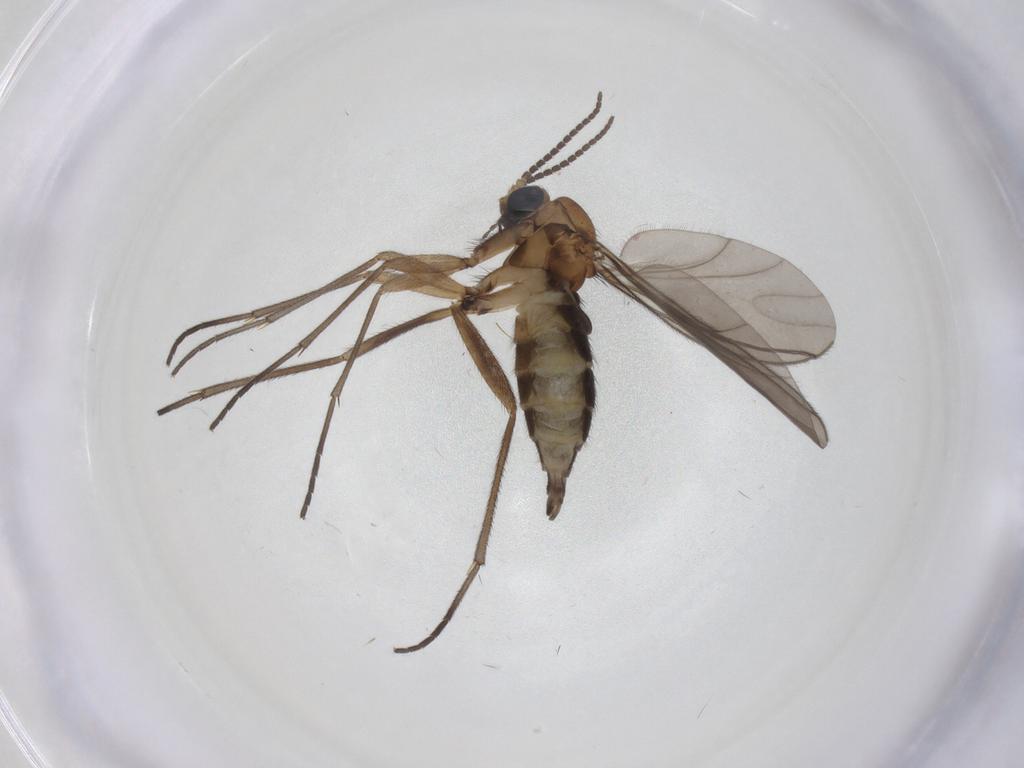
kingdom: Animalia
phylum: Arthropoda
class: Insecta
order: Diptera
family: Sciaridae
